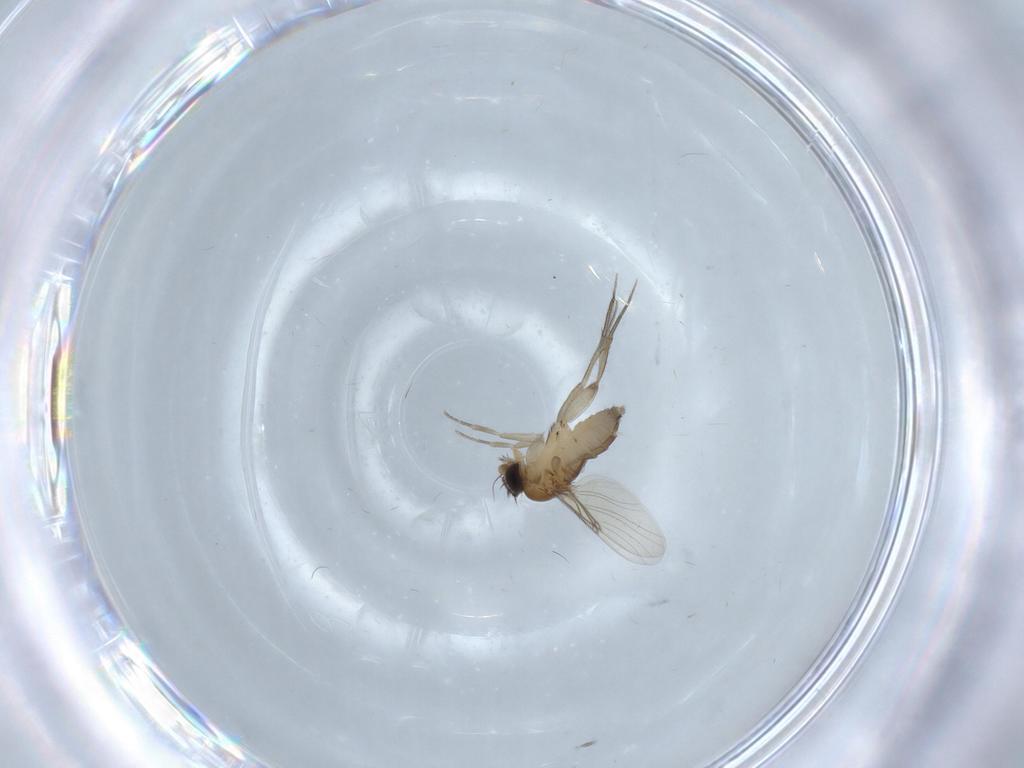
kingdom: Animalia
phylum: Arthropoda
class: Insecta
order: Diptera
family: Phoridae
